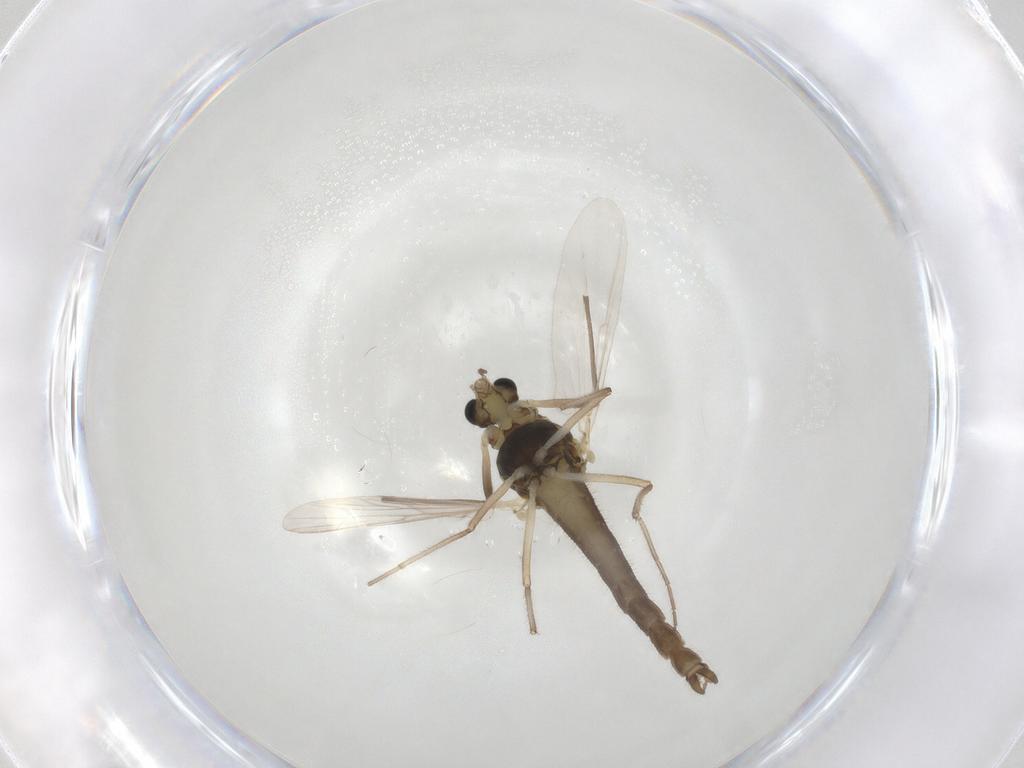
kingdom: Animalia
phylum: Arthropoda
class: Insecta
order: Diptera
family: Chironomidae
